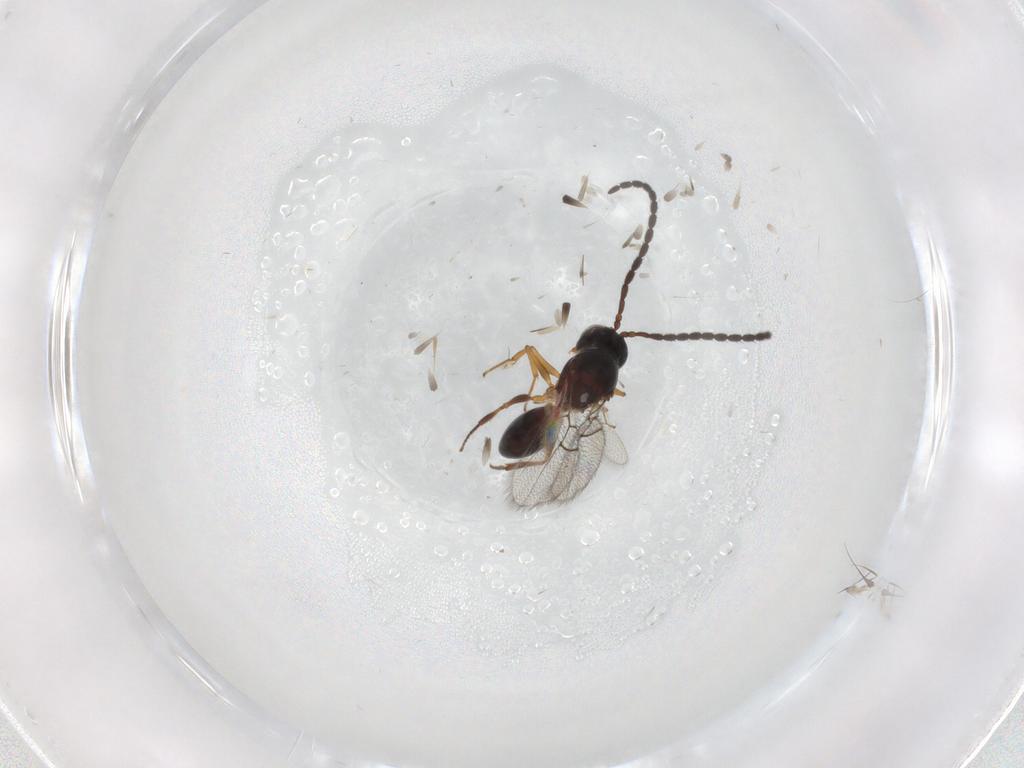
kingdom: Animalia
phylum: Arthropoda
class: Insecta
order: Hymenoptera
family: Figitidae
